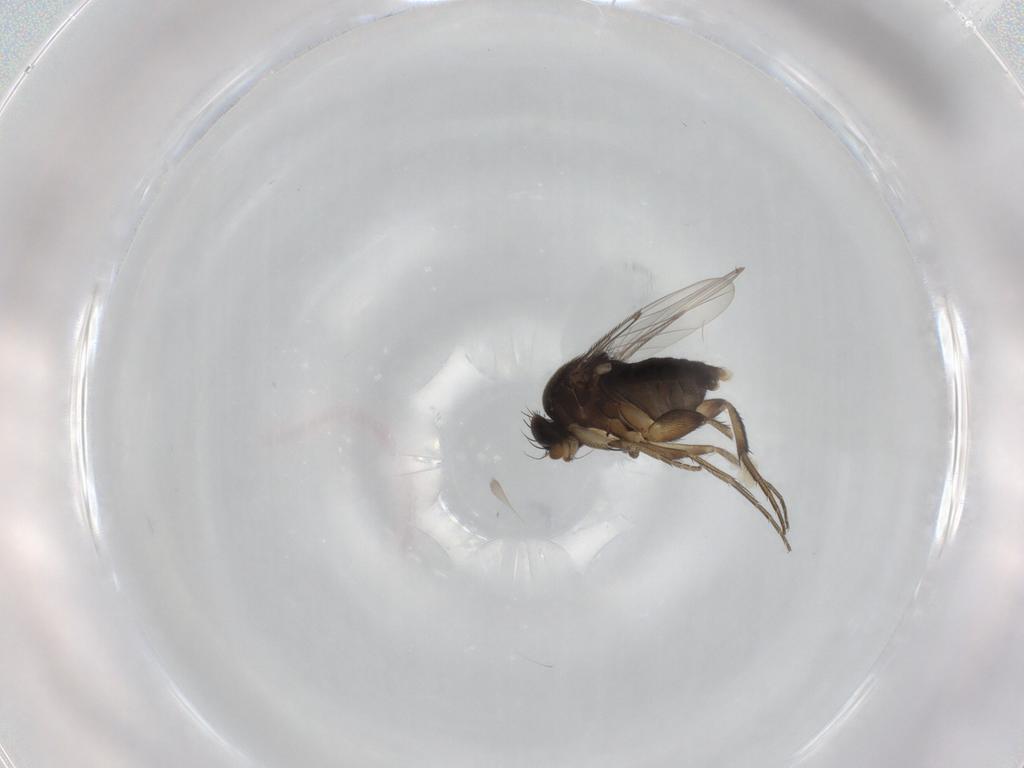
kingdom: Animalia
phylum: Arthropoda
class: Insecta
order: Diptera
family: Phoridae
